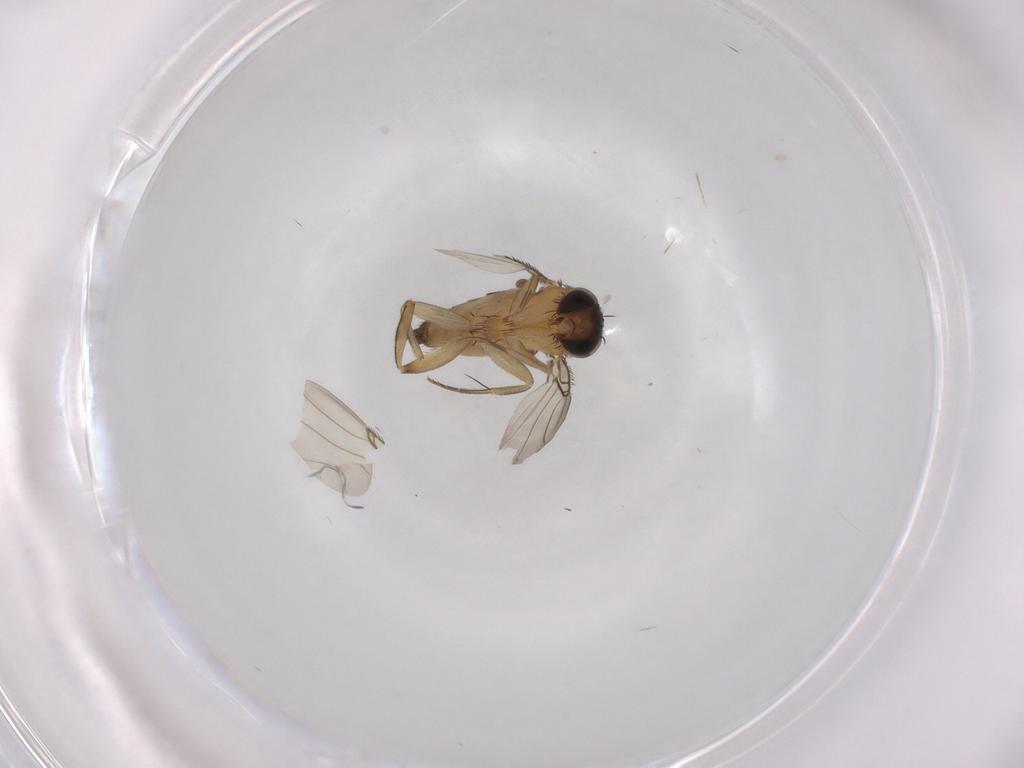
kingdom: Animalia
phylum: Arthropoda
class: Insecta
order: Diptera
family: Phoridae
